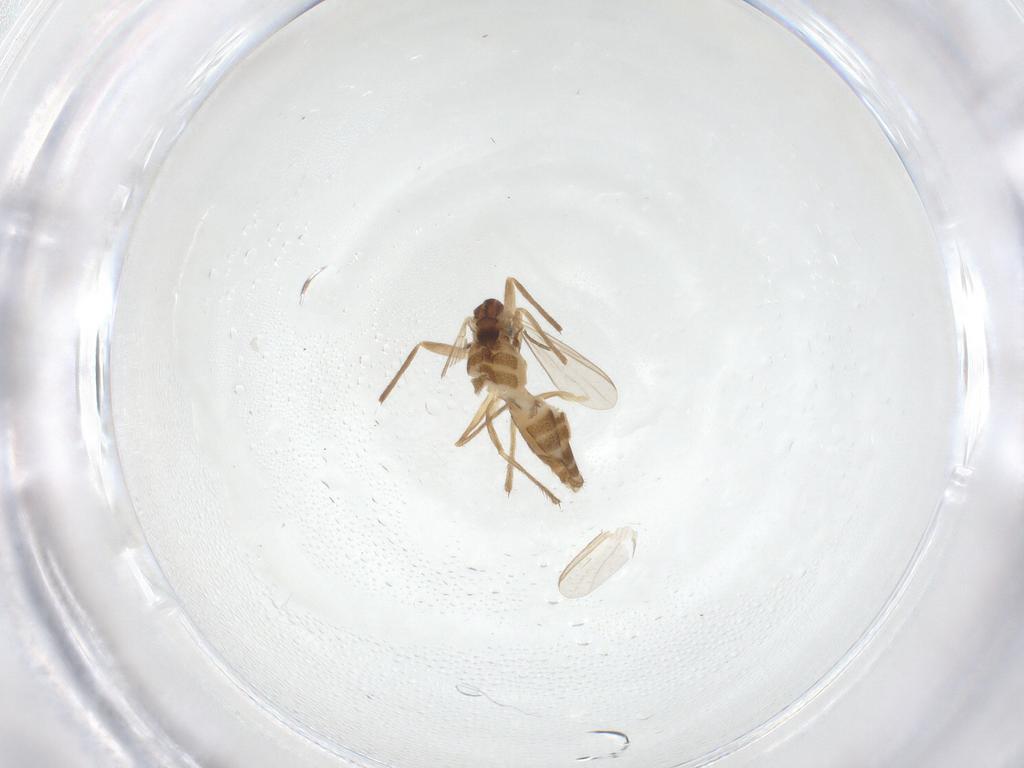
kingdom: Animalia
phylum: Arthropoda
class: Insecta
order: Diptera
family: Chironomidae
